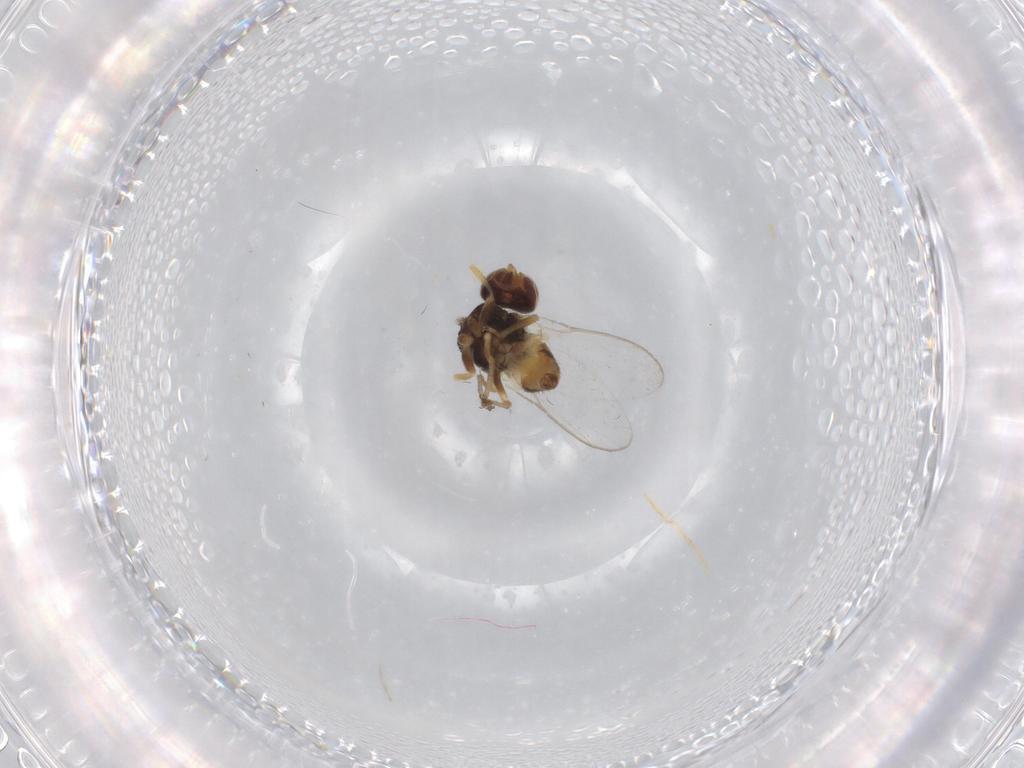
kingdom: Animalia
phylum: Arthropoda
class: Insecta
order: Diptera
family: Chloropidae
